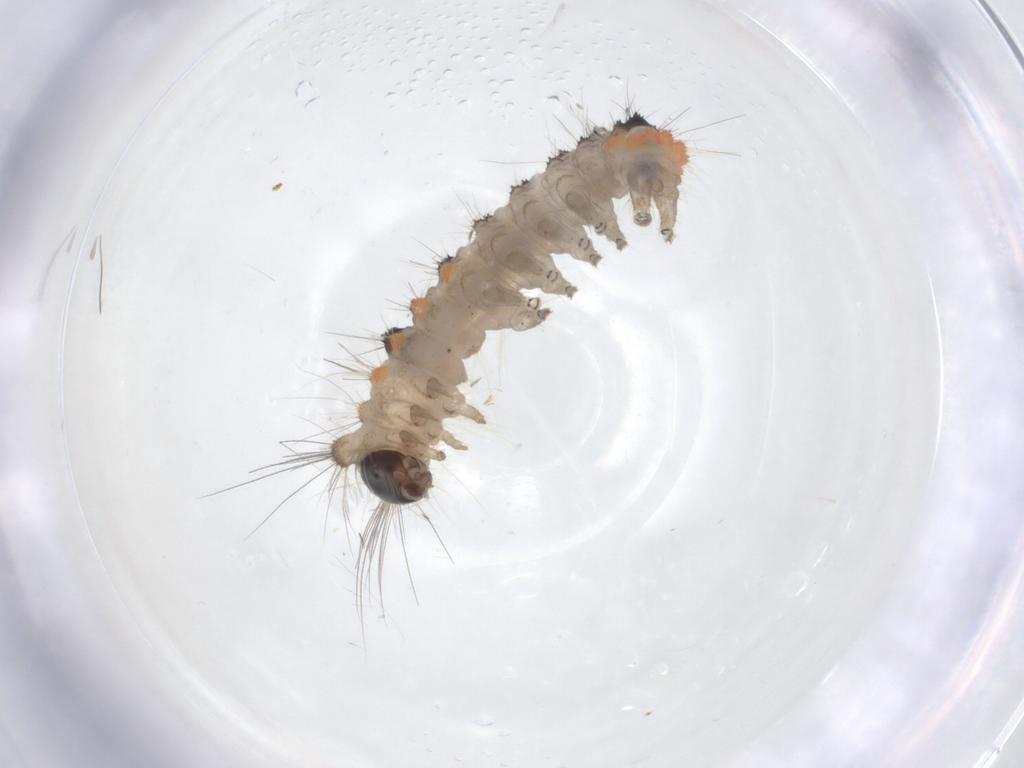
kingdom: Animalia
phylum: Arthropoda
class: Insecta
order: Lepidoptera
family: Erebidae
